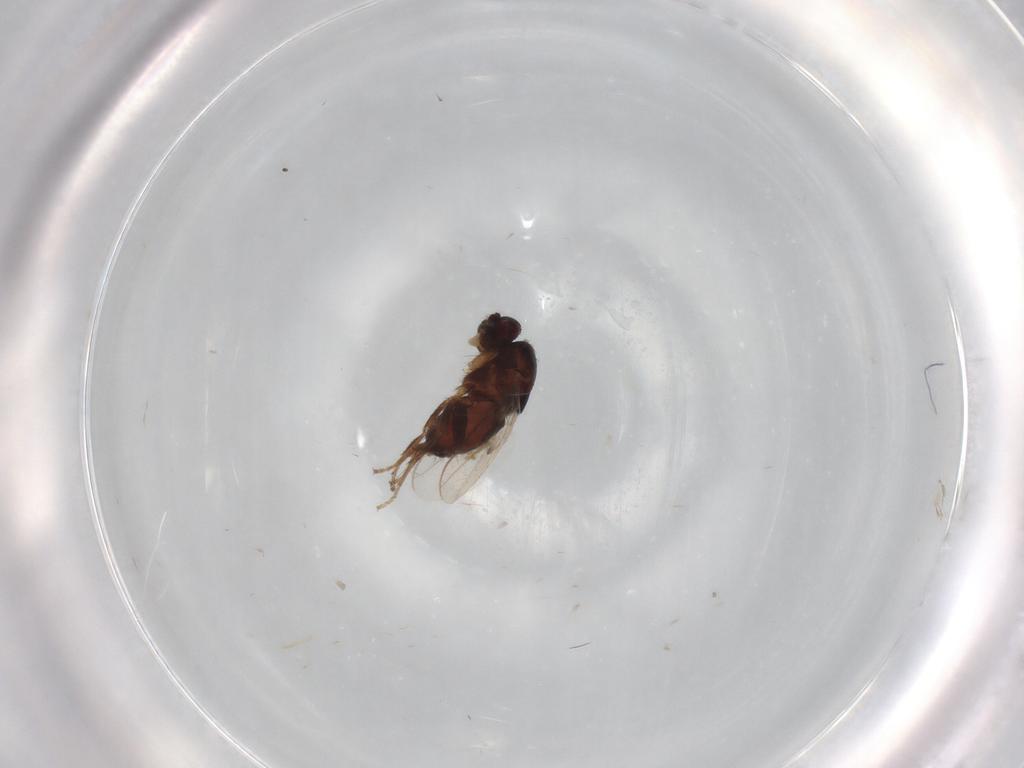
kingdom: Animalia
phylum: Arthropoda
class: Insecta
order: Diptera
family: Sphaeroceridae
